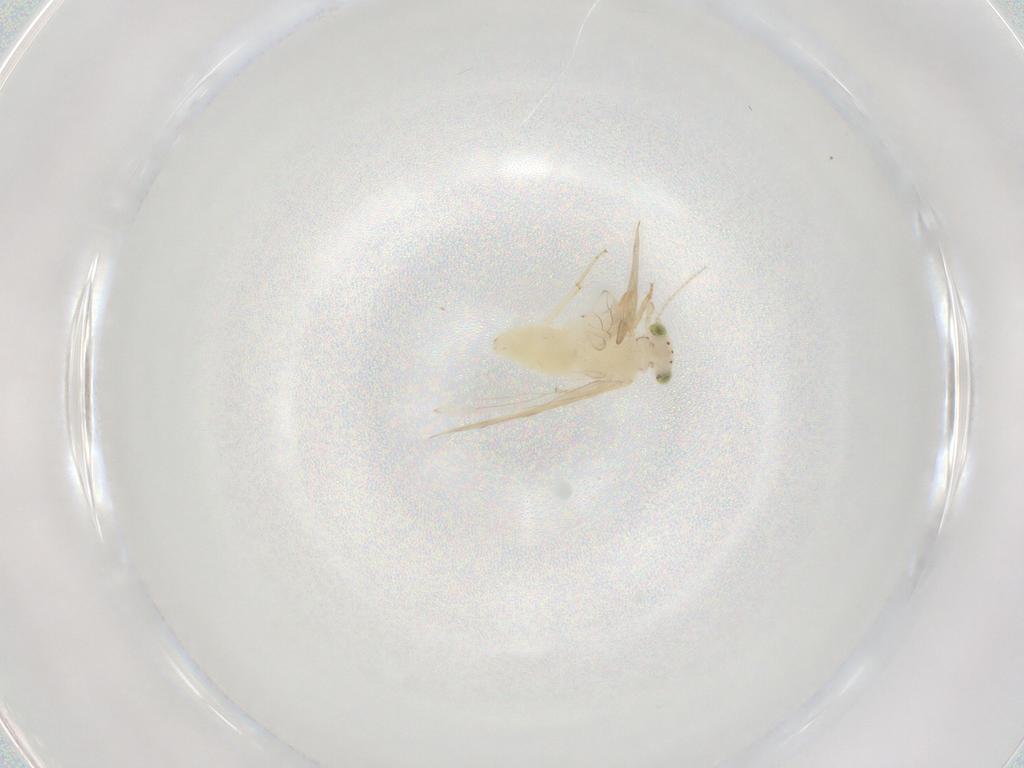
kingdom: Animalia
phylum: Arthropoda
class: Insecta
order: Psocodea
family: Lepidopsocidae
